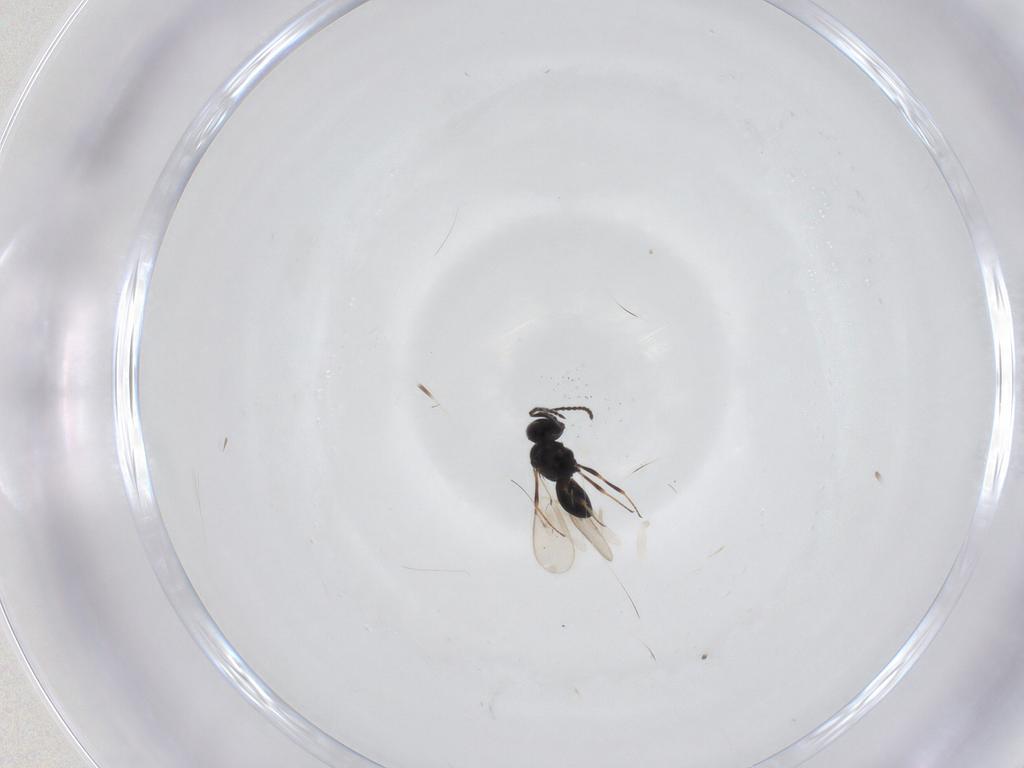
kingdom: Animalia
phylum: Arthropoda
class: Insecta
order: Hymenoptera
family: Scelionidae
